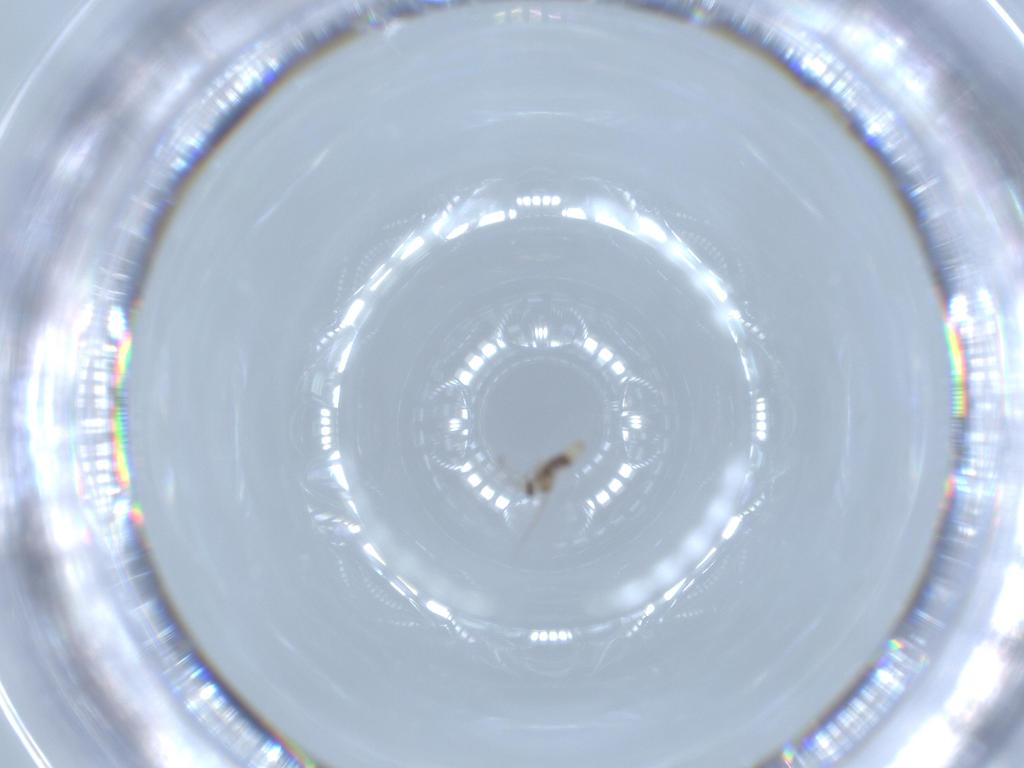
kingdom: Animalia
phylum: Arthropoda
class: Insecta
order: Diptera
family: Cecidomyiidae
